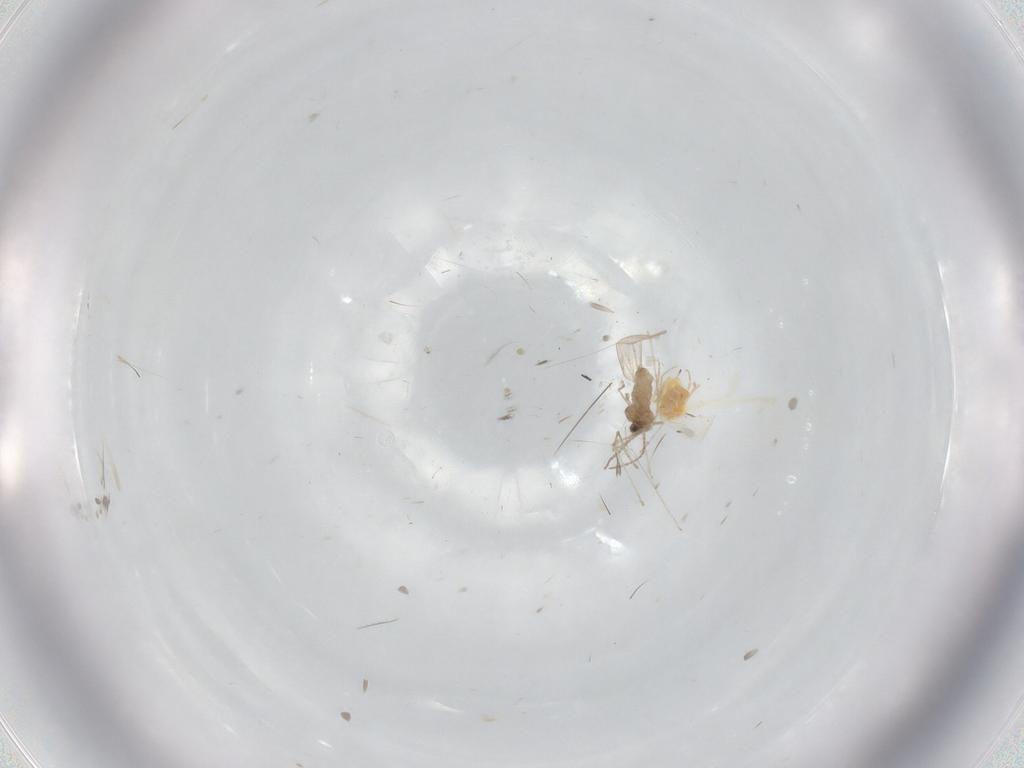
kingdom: Animalia
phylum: Arthropoda
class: Insecta
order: Hemiptera
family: Aleyrodidae
